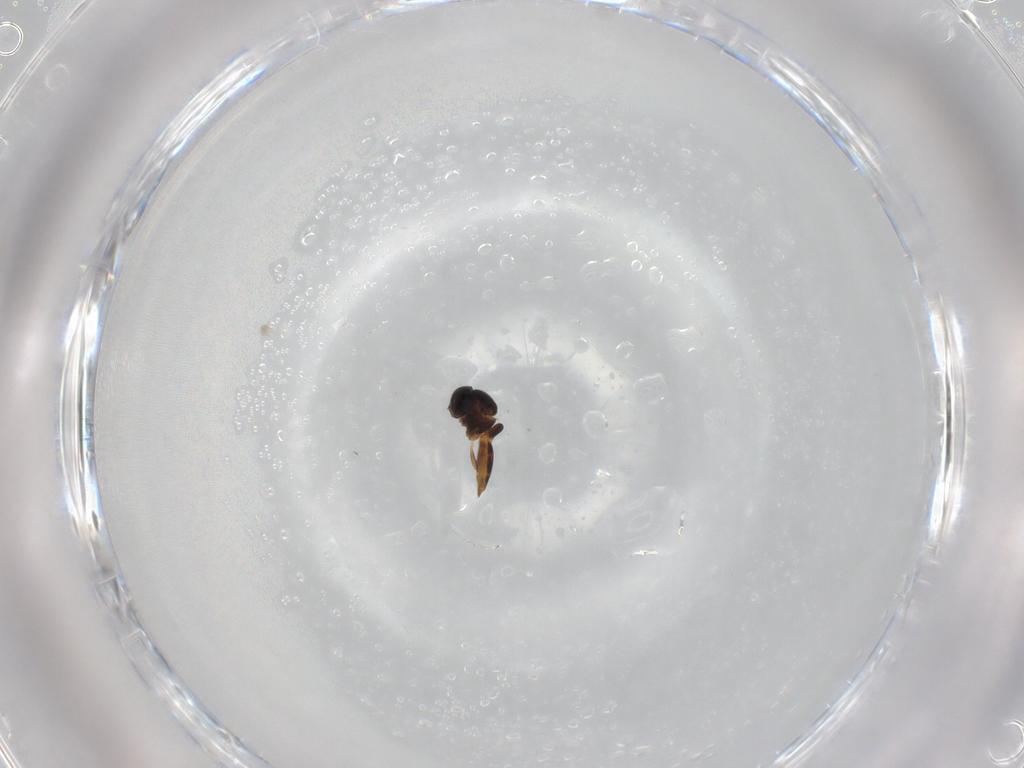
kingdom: Animalia
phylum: Arthropoda
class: Insecta
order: Hymenoptera
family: Scelionidae
